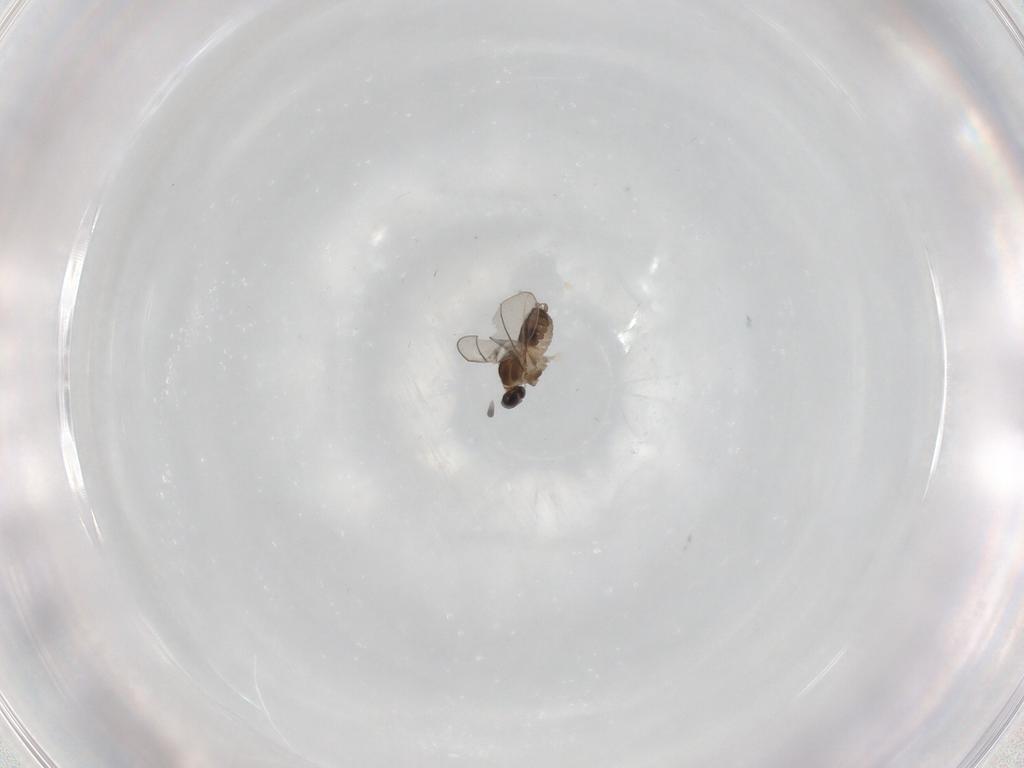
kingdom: Animalia
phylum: Arthropoda
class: Insecta
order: Diptera
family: Cecidomyiidae
